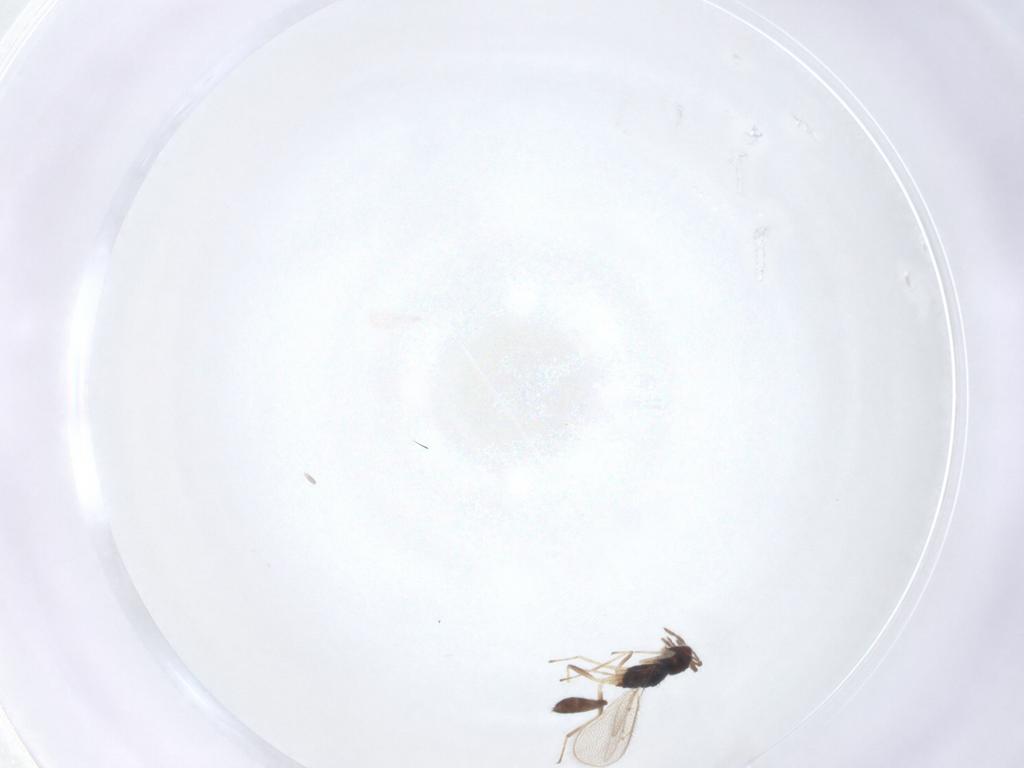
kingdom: Animalia
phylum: Arthropoda
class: Insecta
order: Hymenoptera
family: Eulophidae
